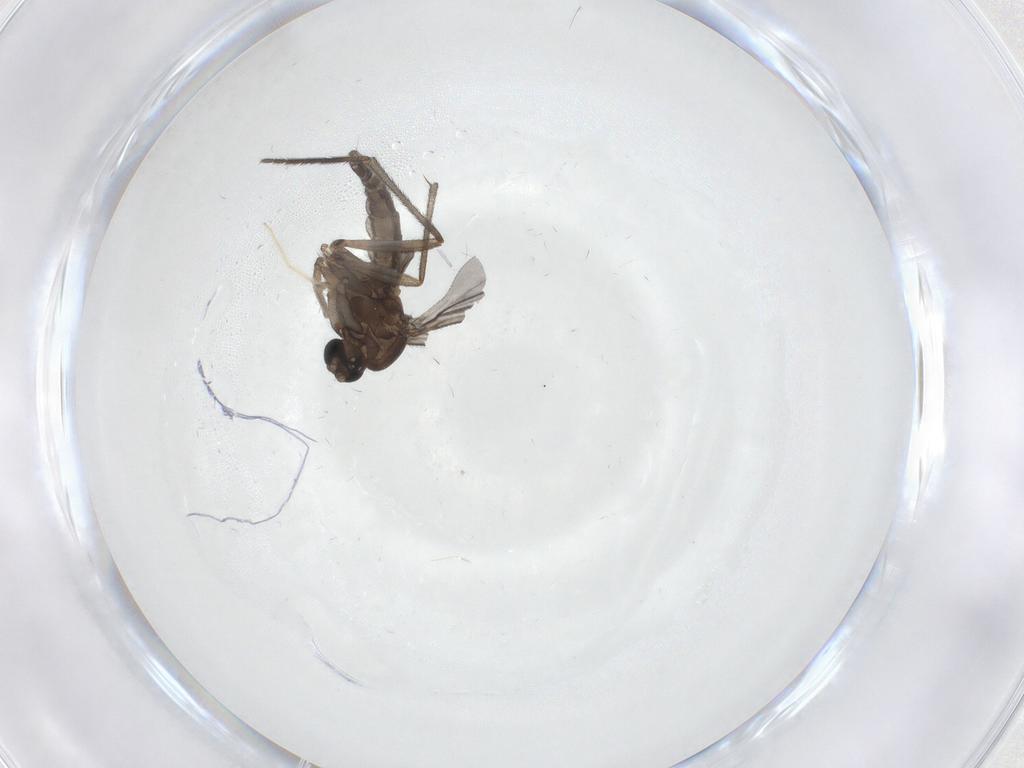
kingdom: Animalia
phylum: Arthropoda
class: Insecta
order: Diptera
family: Sciaridae
